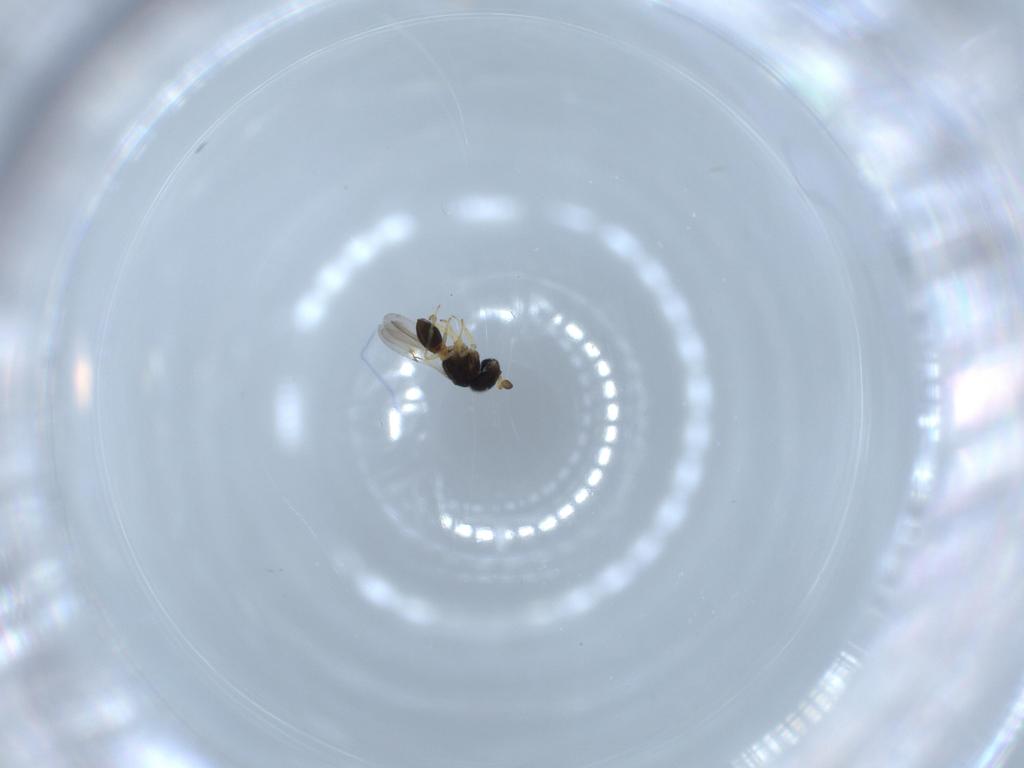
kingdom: Animalia
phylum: Arthropoda
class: Insecta
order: Hymenoptera
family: Scelionidae
